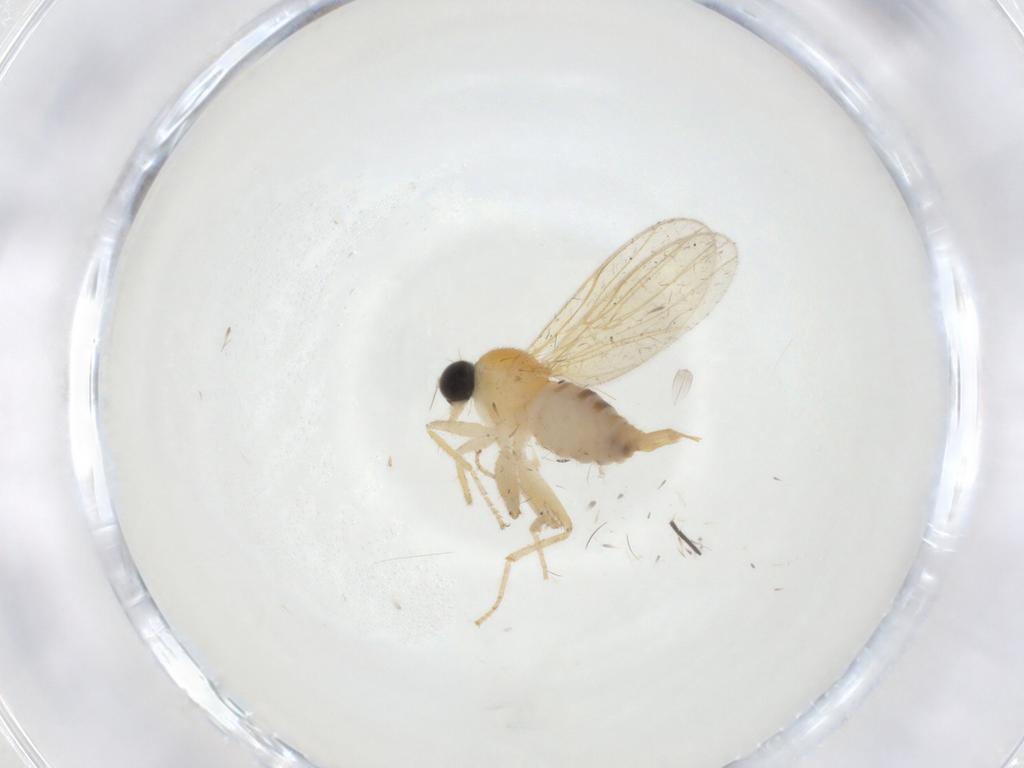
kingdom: Animalia
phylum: Arthropoda
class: Insecta
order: Diptera
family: Sciaridae
